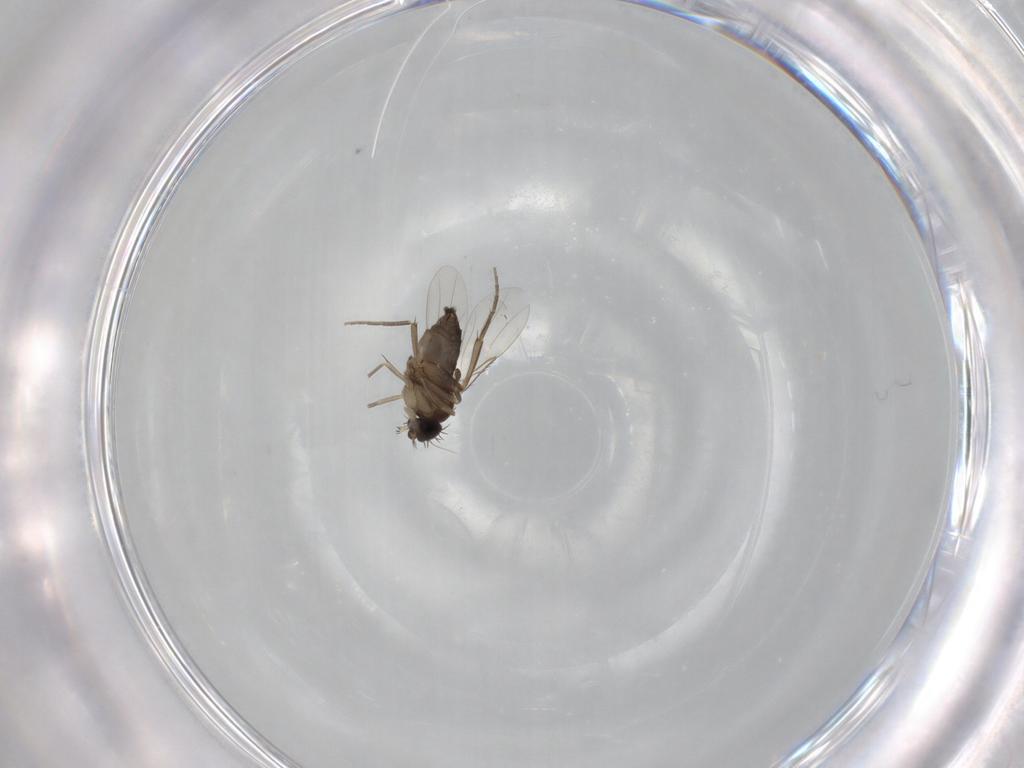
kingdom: Animalia
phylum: Arthropoda
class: Insecta
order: Diptera
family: Phoridae
